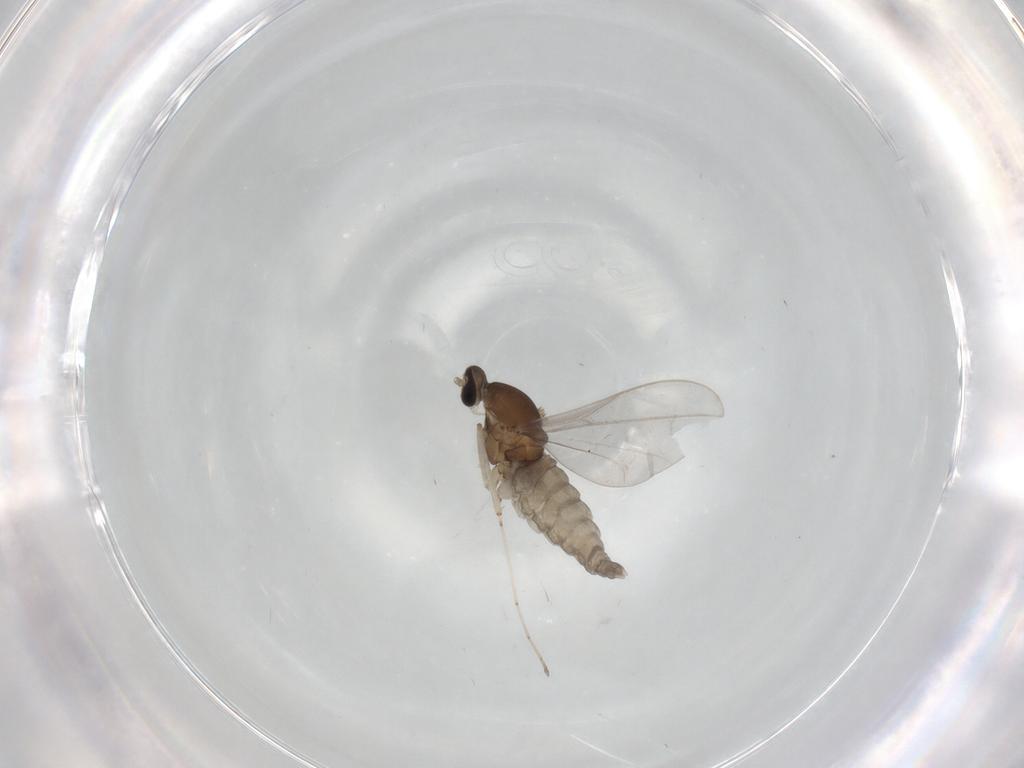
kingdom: Animalia
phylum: Arthropoda
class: Insecta
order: Diptera
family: Cecidomyiidae
